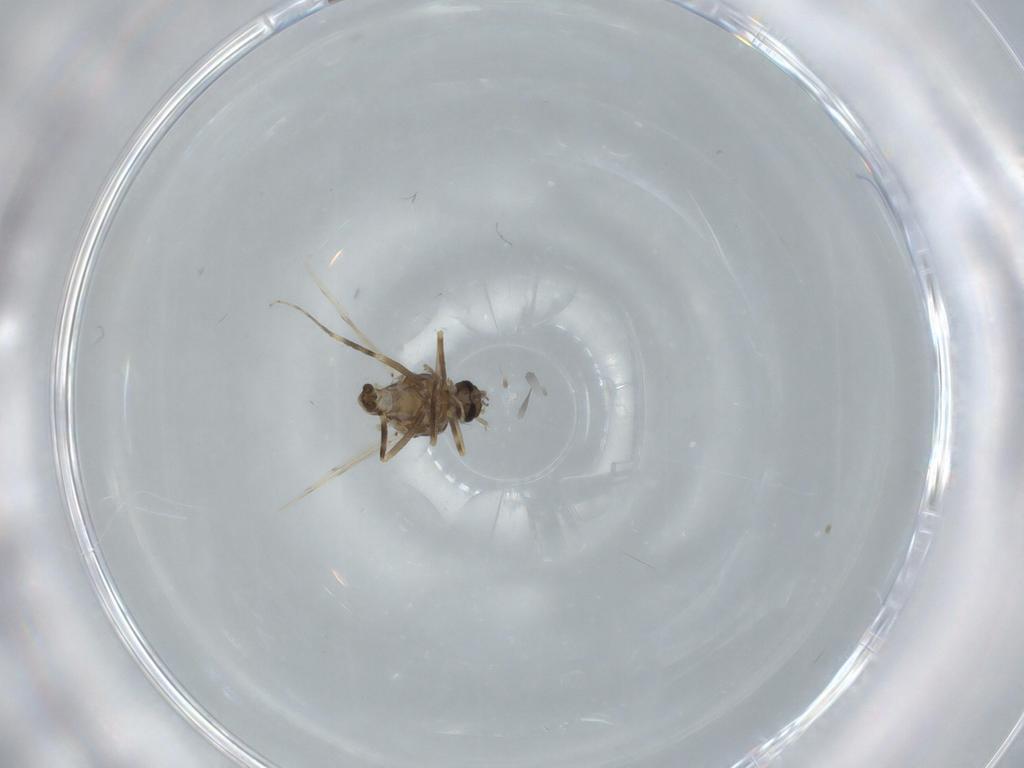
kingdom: Animalia
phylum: Arthropoda
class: Insecta
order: Diptera
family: Ceratopogonidae
